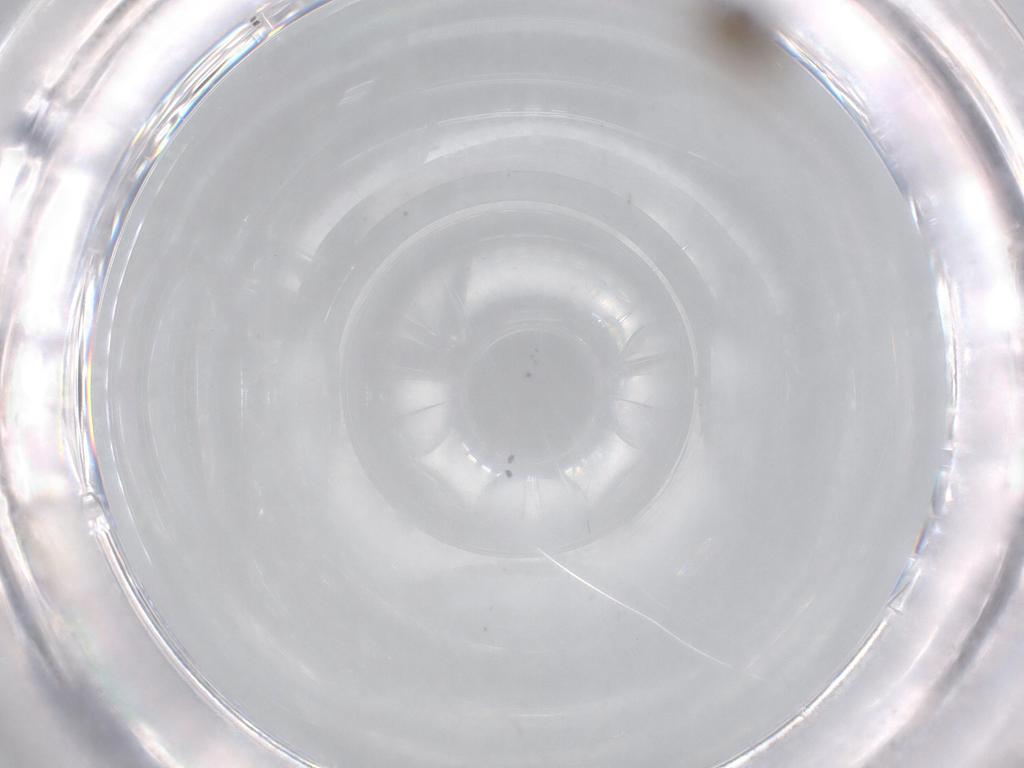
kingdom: Animalia
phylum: Arthropoda
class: Insecta
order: Diptera
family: Chironomidae
